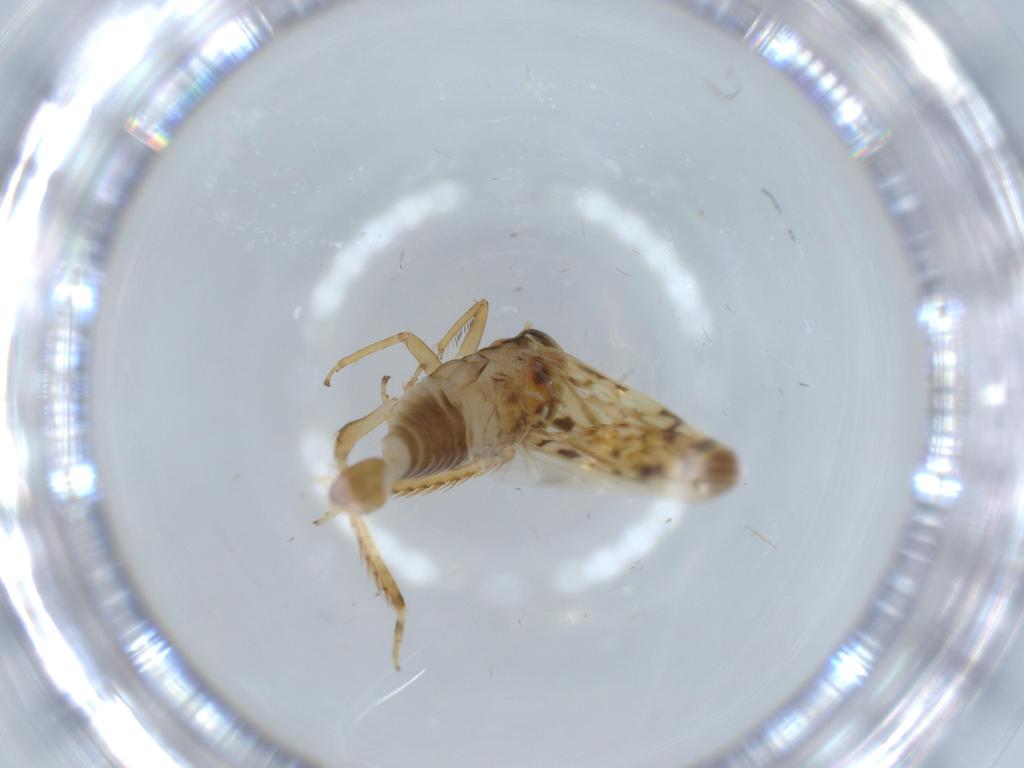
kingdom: Animalia
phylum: Arthropoda
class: Insecta
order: Hemiptera
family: Cicadellidae
